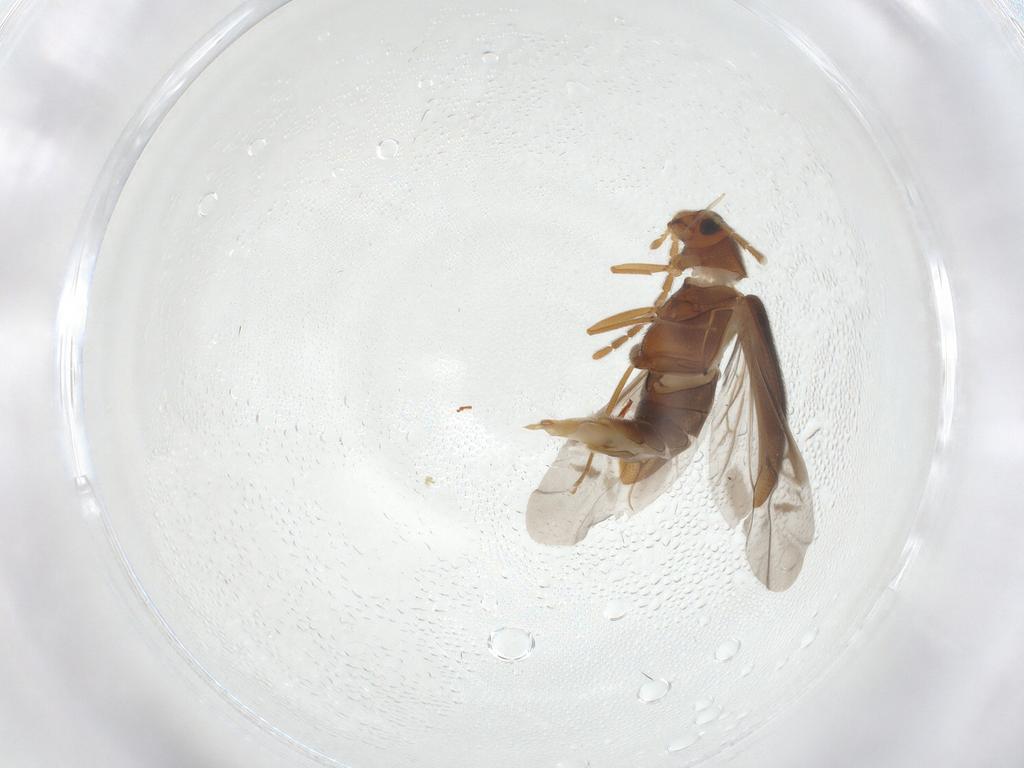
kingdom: Animalia
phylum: Arthropoda
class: Insecta
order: Coleoptera
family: Melandryidae
